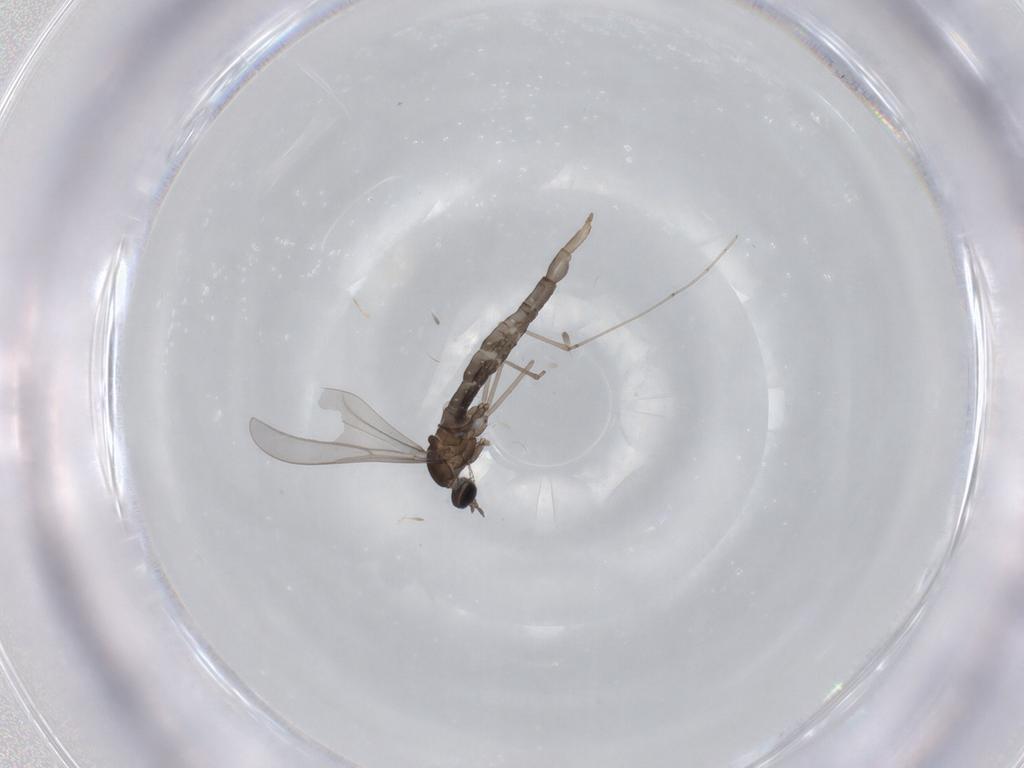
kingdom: Animalia
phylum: Arthropoda
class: Insecta
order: Diptera
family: Cecidomyiidae
